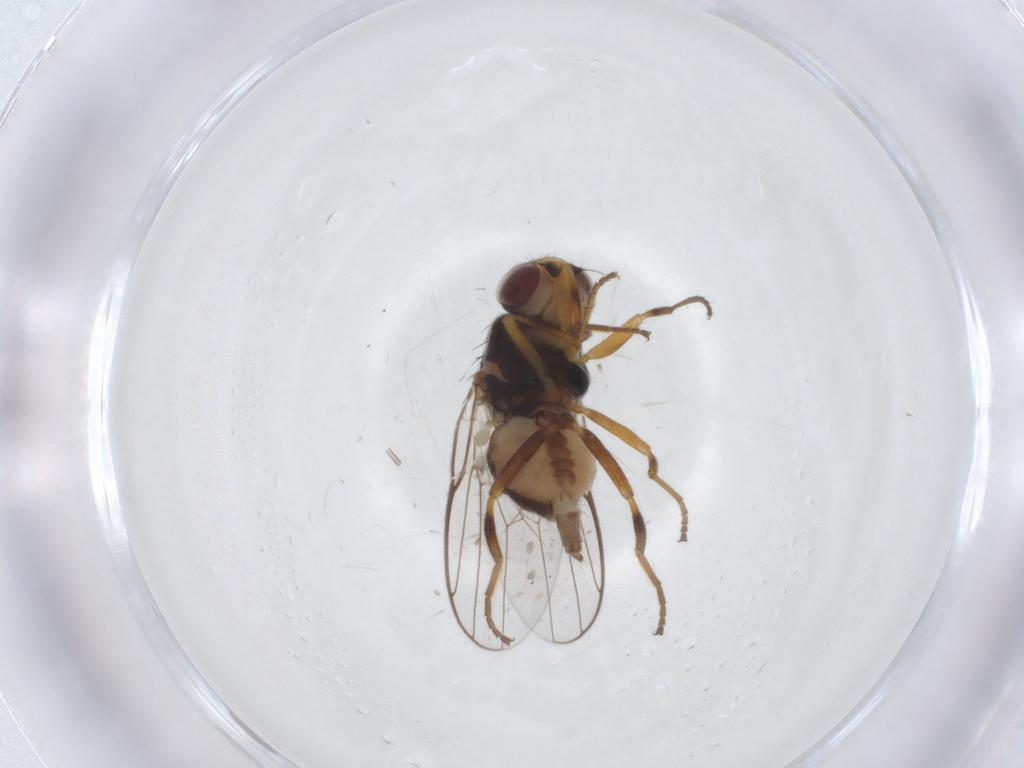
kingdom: Animalia
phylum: Arthropoda
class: Insecta
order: Diptera
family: Chloropidae
